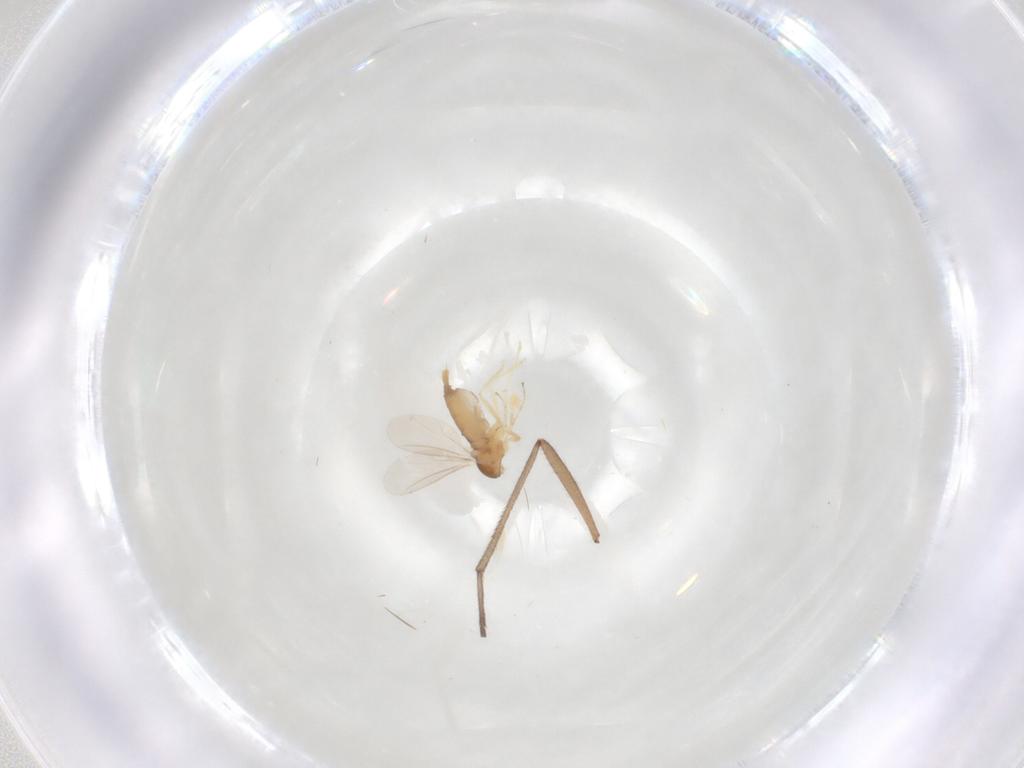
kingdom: Animalia
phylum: Arthropoda
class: Insecta
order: Diptera
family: Cecidomyiidae
